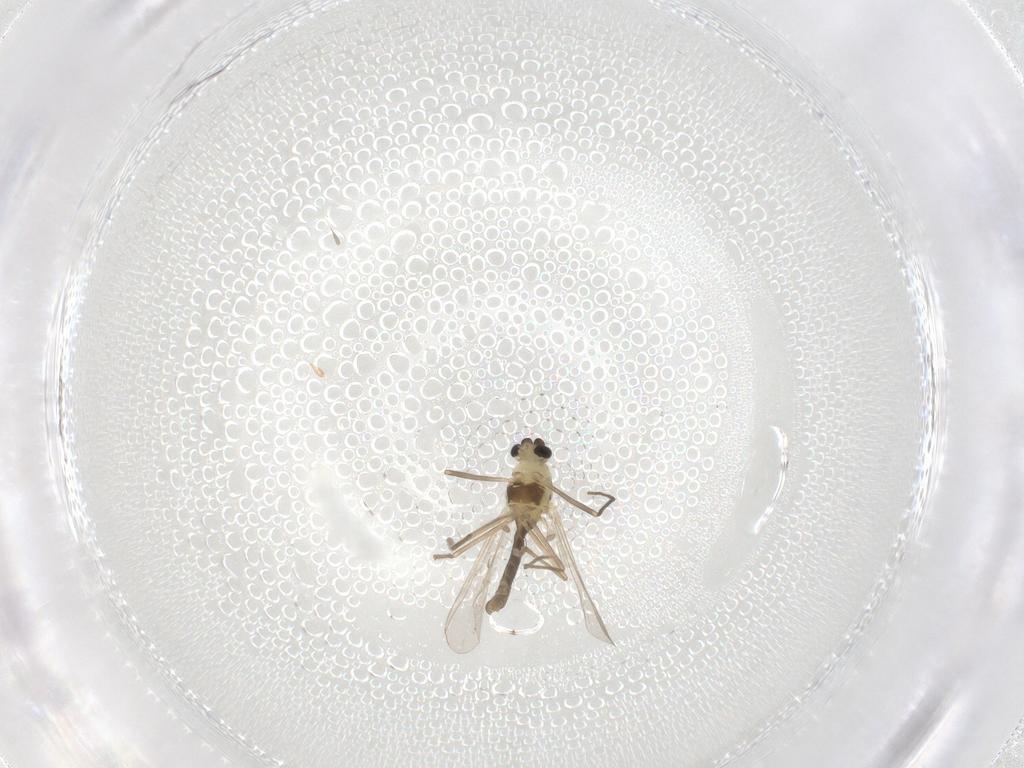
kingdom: Animalia
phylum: Arthropoda
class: Insecta
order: Diptera
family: Chironomidae
